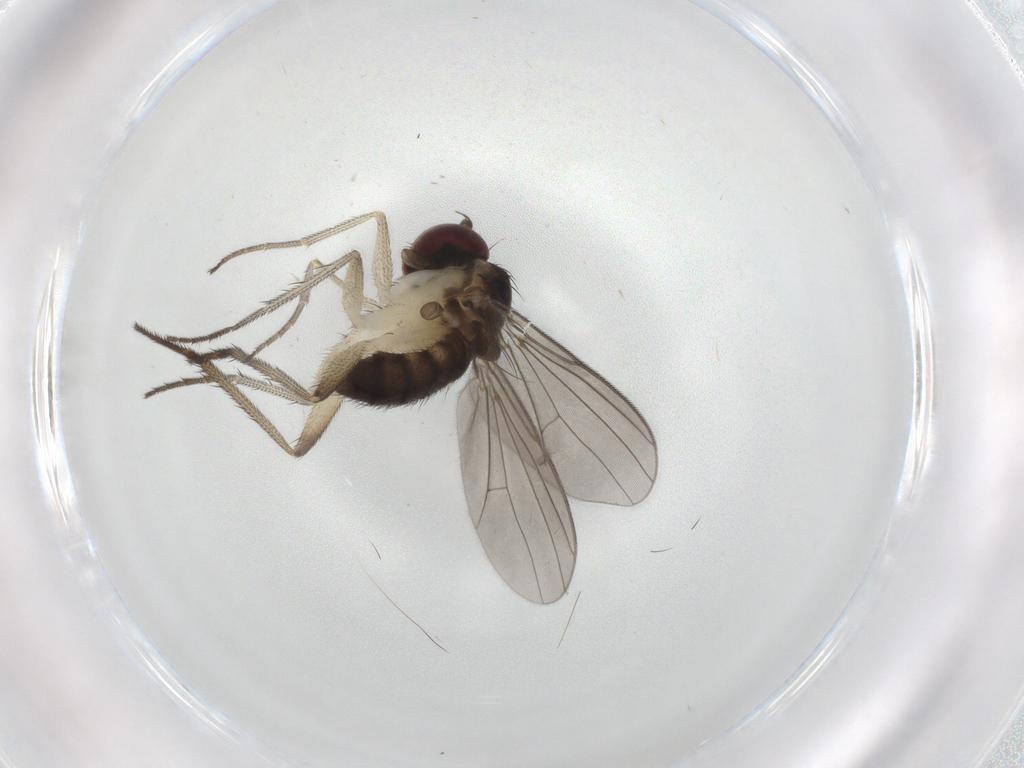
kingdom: Animalia
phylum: Arthropoda
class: Insecta
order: Diptera
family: Dolichopodidae
